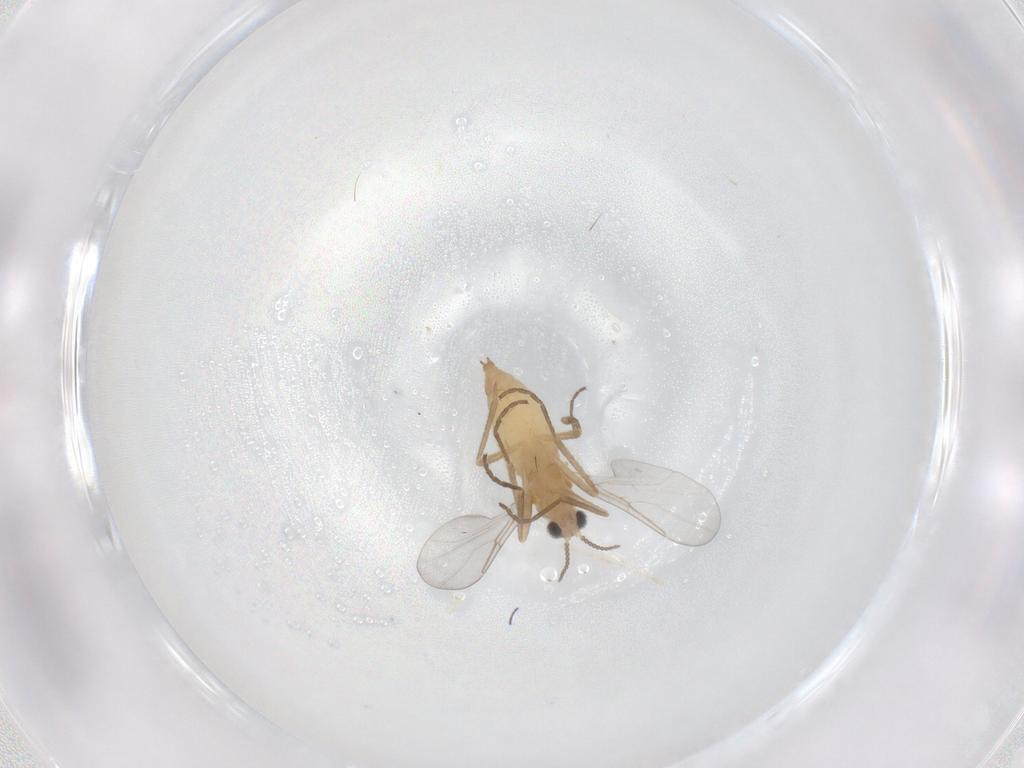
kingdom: Animalia
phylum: Arthropoda
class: Insecta
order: Diptera
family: Cecidomyiidae
